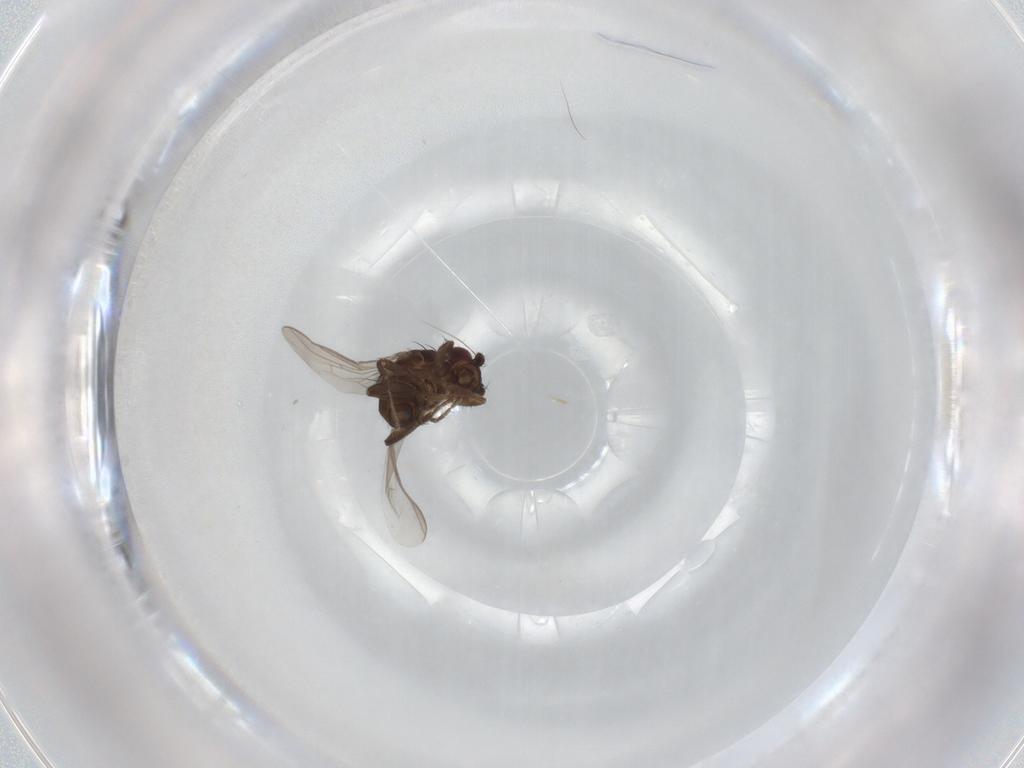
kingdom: Animalia
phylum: Arthropoda
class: Insecta
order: Diptera
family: Sphaeroceridae
